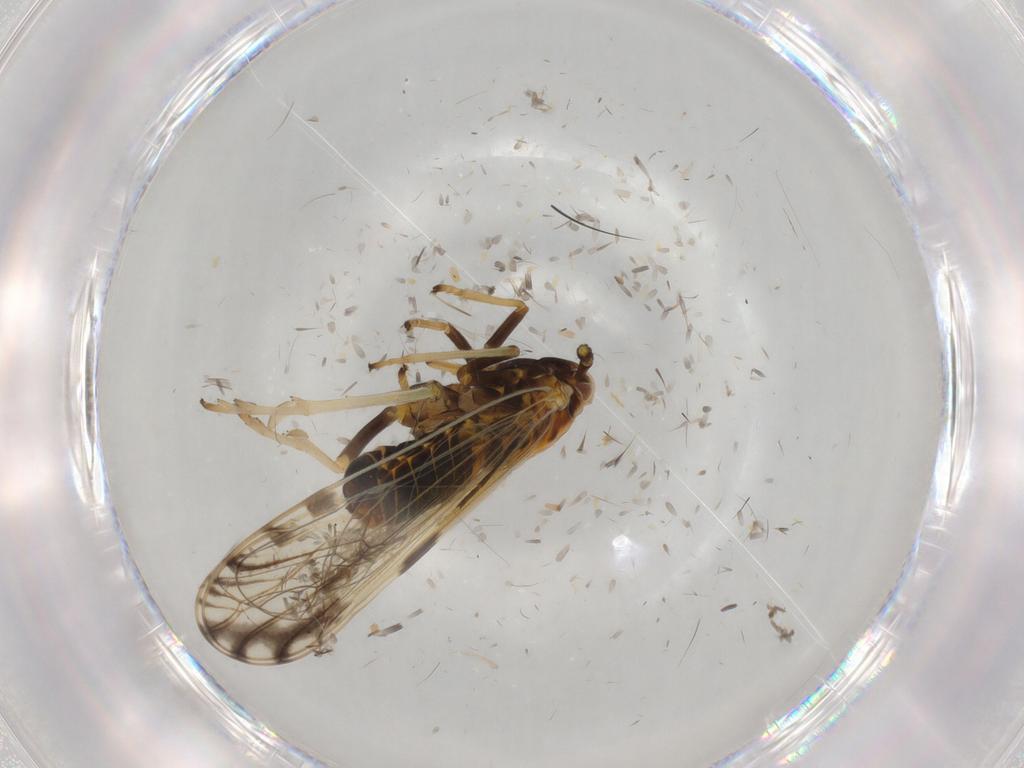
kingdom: Animalia
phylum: Arthropoda
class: Insecta
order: Hemiptera
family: Delphacidae
